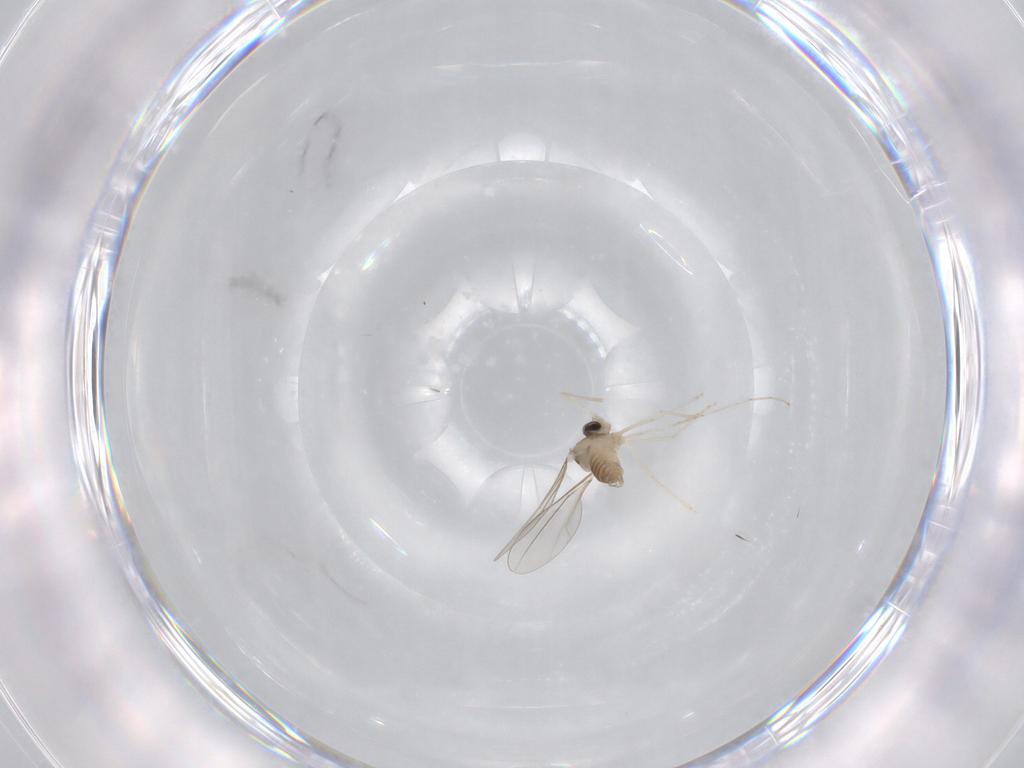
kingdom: Animalia
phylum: Arthropoda
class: Insecta
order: Diptera
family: Cecidomyiidae
